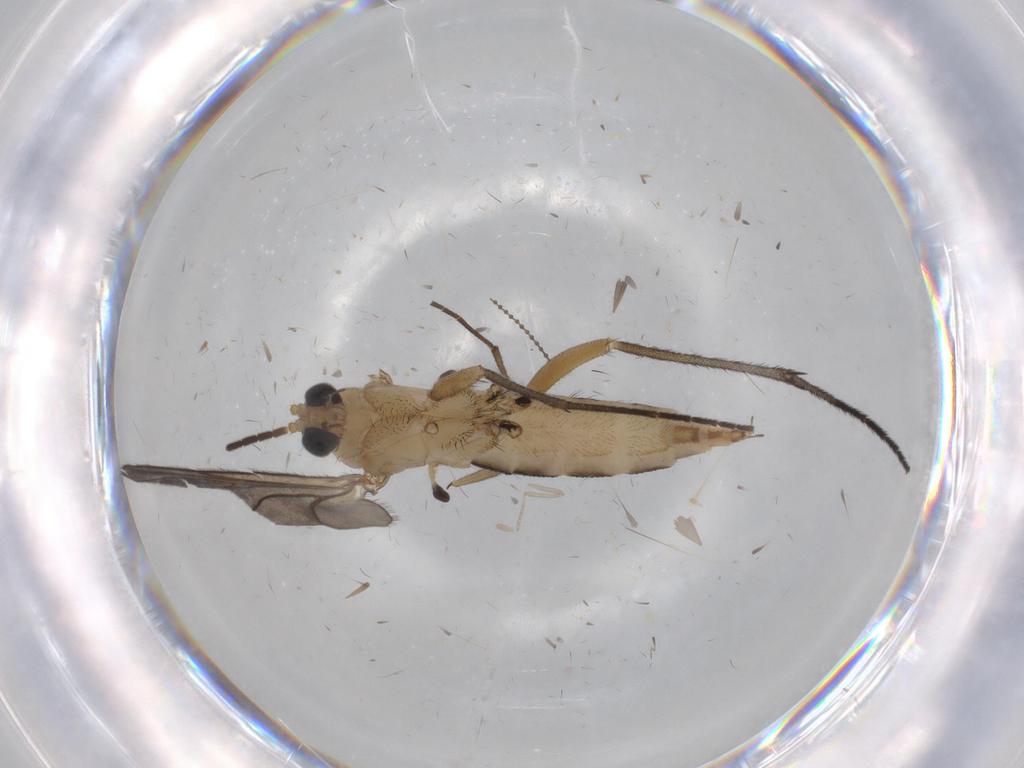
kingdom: Animalia
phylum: Arthropoda
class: Insecta
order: Diptera
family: Sciaridae
